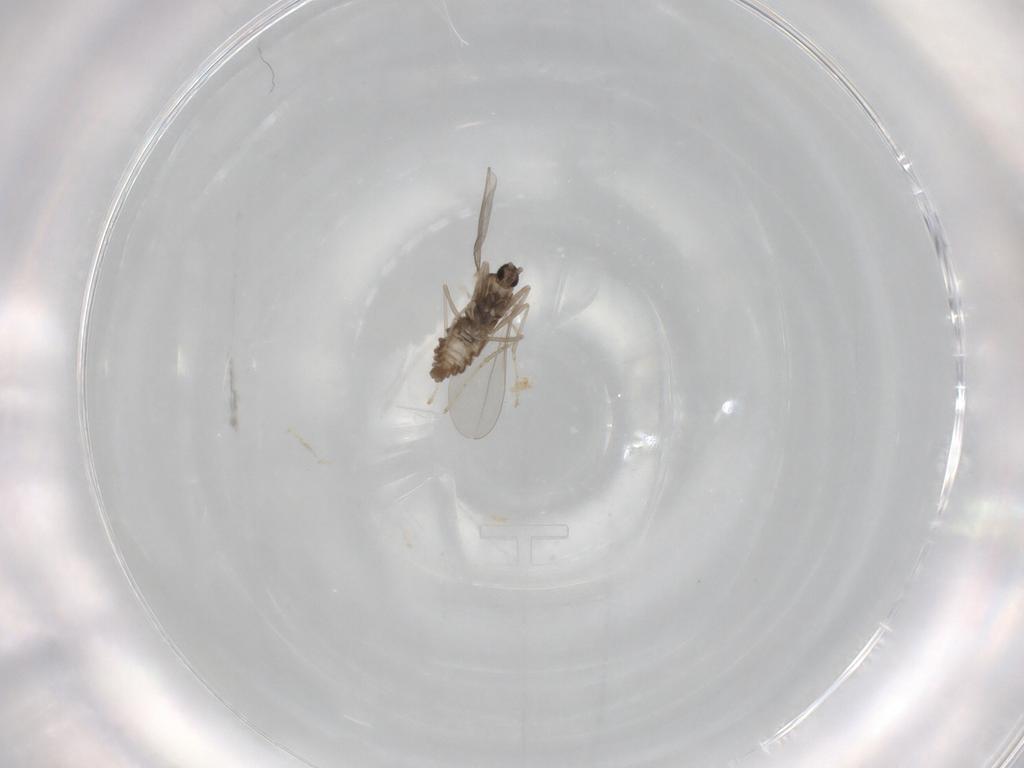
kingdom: Animalia
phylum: Arthropoda
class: Insecta
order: Diptera
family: Cecidomyiidae
